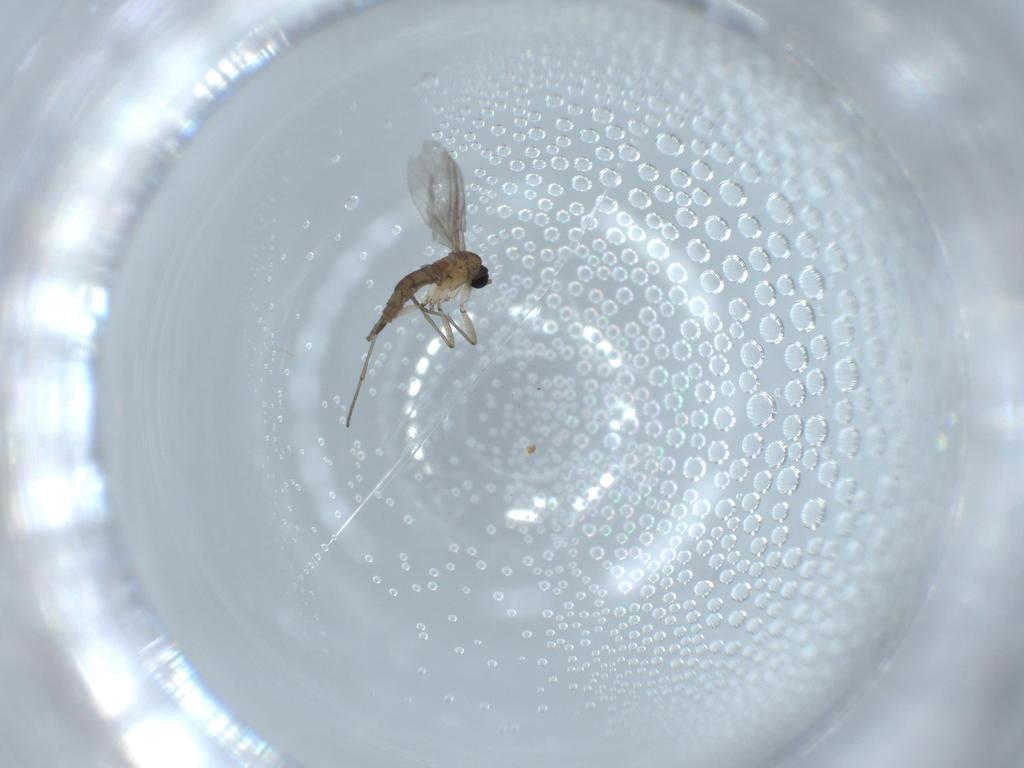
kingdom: Animalia
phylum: Arthropoda
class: Insecta
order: Diptera
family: Sciaridae
